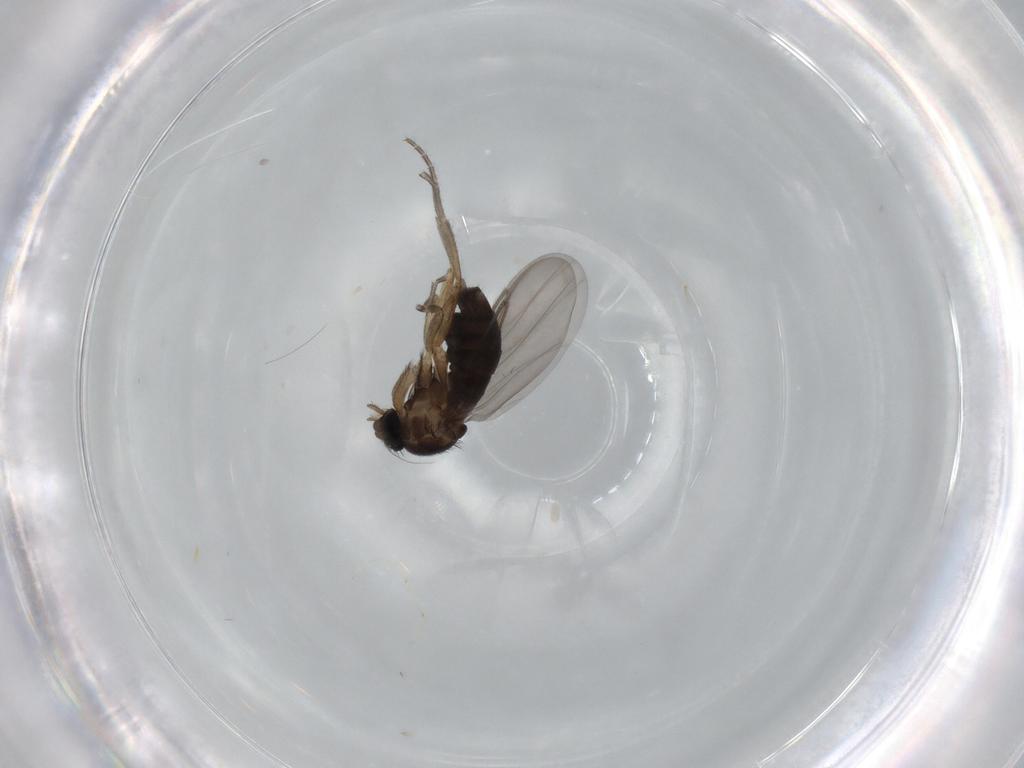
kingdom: Animalia
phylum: Arthropoda
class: Insecta
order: Diptera
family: Phoridae
